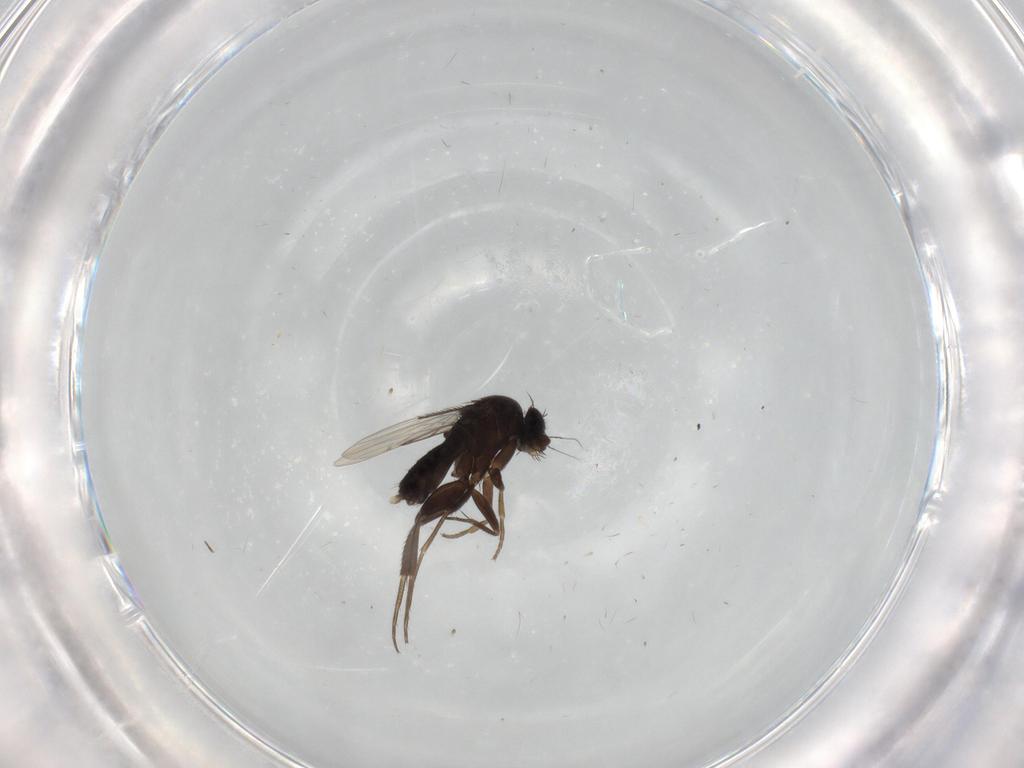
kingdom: Animalia
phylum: Arthropoda
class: Insecta
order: Diptera
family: Phoridae
